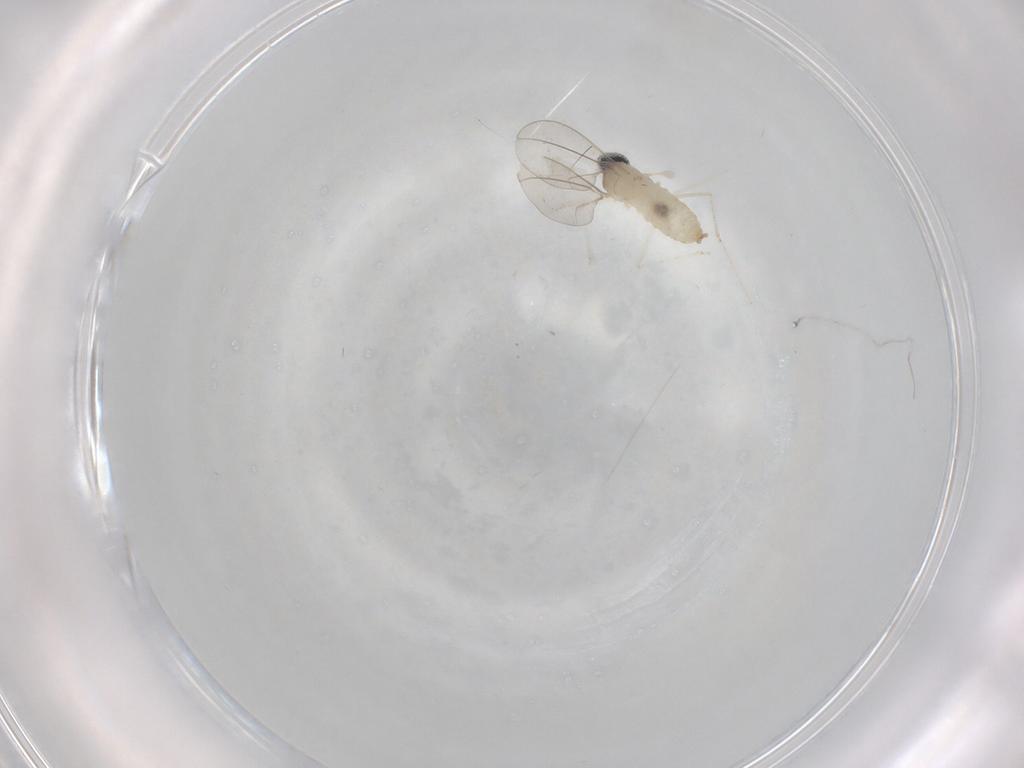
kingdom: Animalia
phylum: Arthropoda
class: Insecta
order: Diptera
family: Cecidomyiidae
